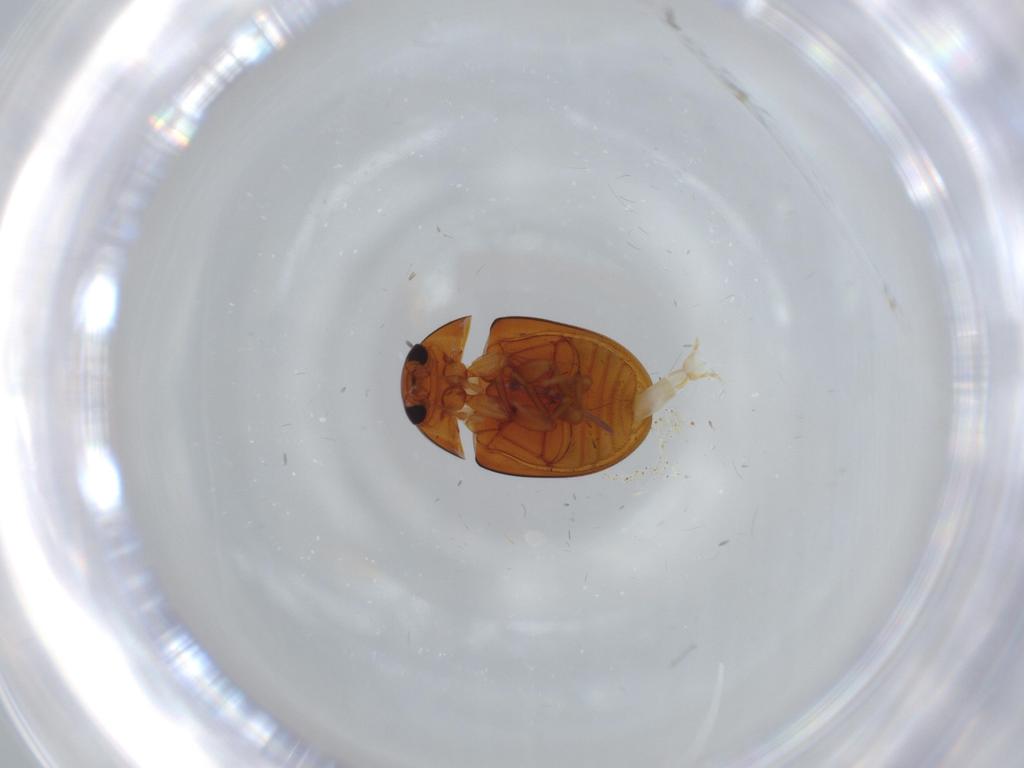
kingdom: Animalia
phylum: Arthropoda
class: Insecta
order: Coleoptera
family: Phalacridae
